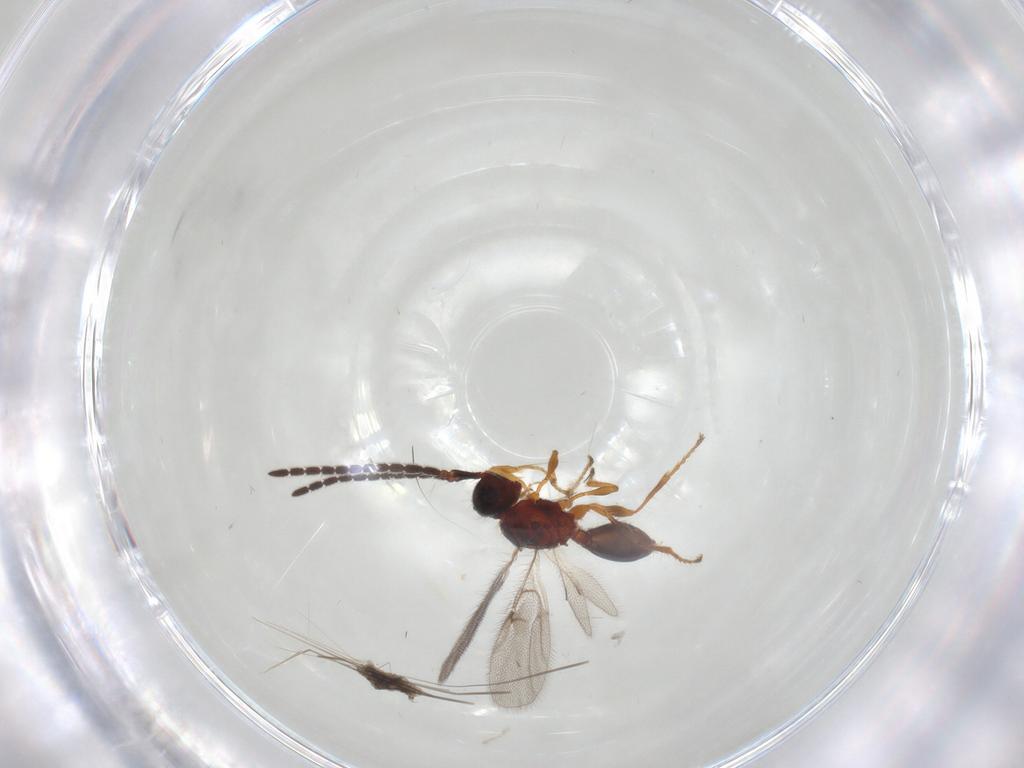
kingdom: Animalia
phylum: Arthropoda
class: Insecta
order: Hymenoptera
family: Diapriidae
